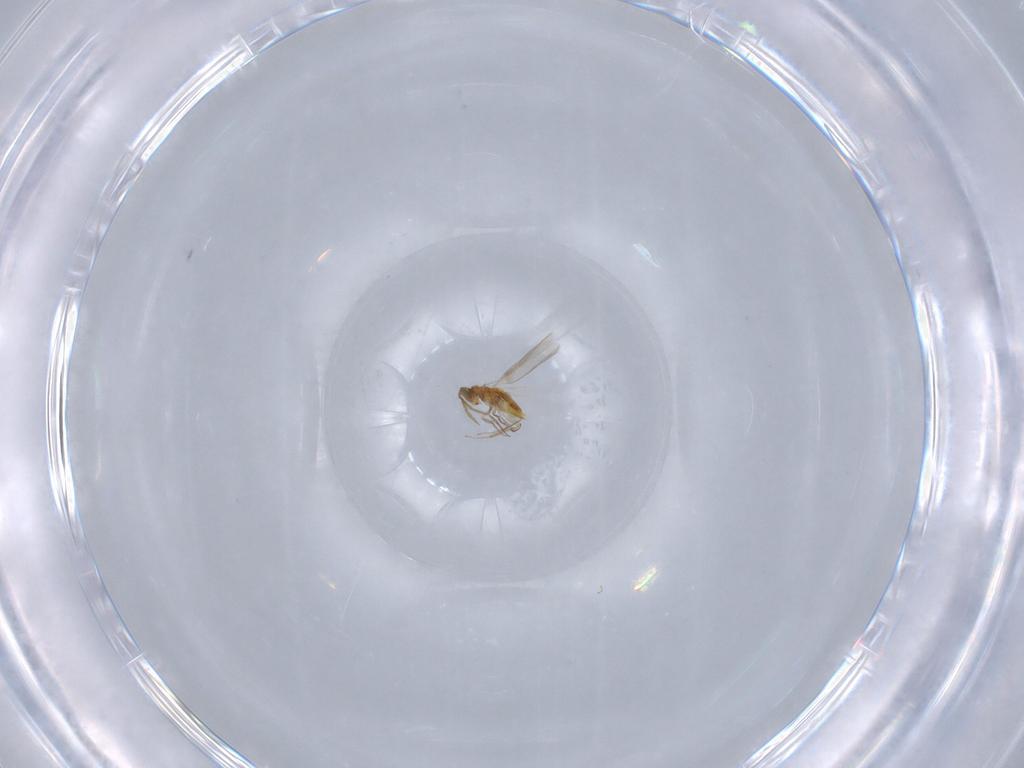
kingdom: Animalia
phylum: Arthropoda
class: Insecta
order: Hymenoptera
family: Aphelinidae
